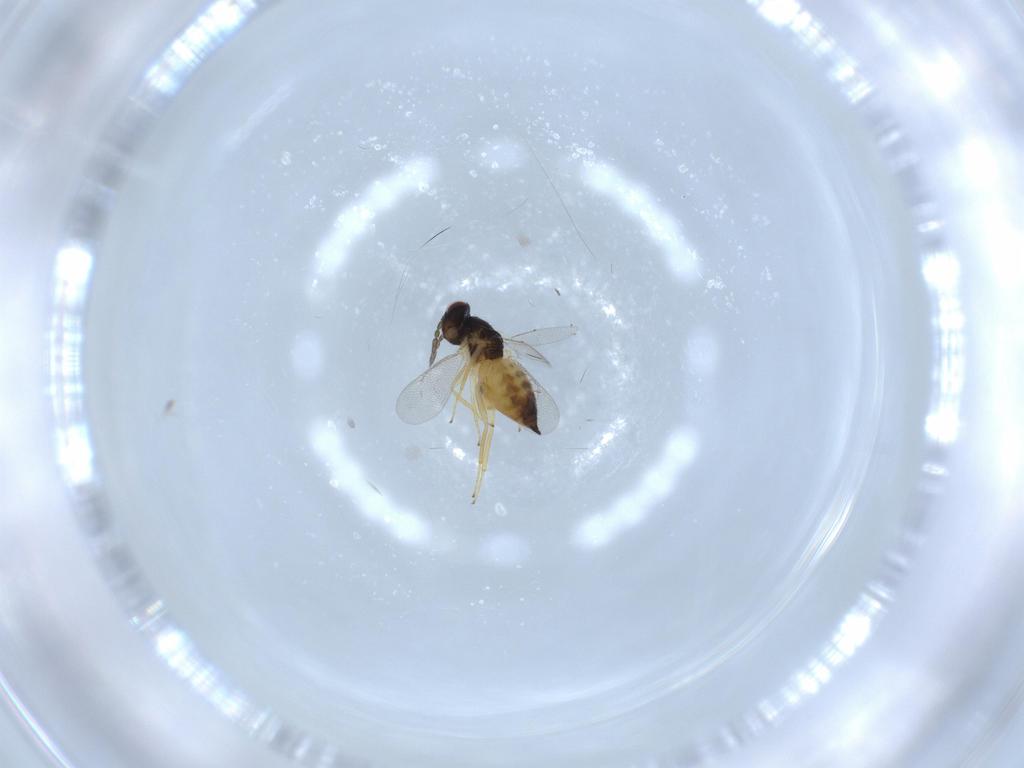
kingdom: Animalia
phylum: Arthropoda
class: Insecta
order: Hymenoptera
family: Eulophidae
